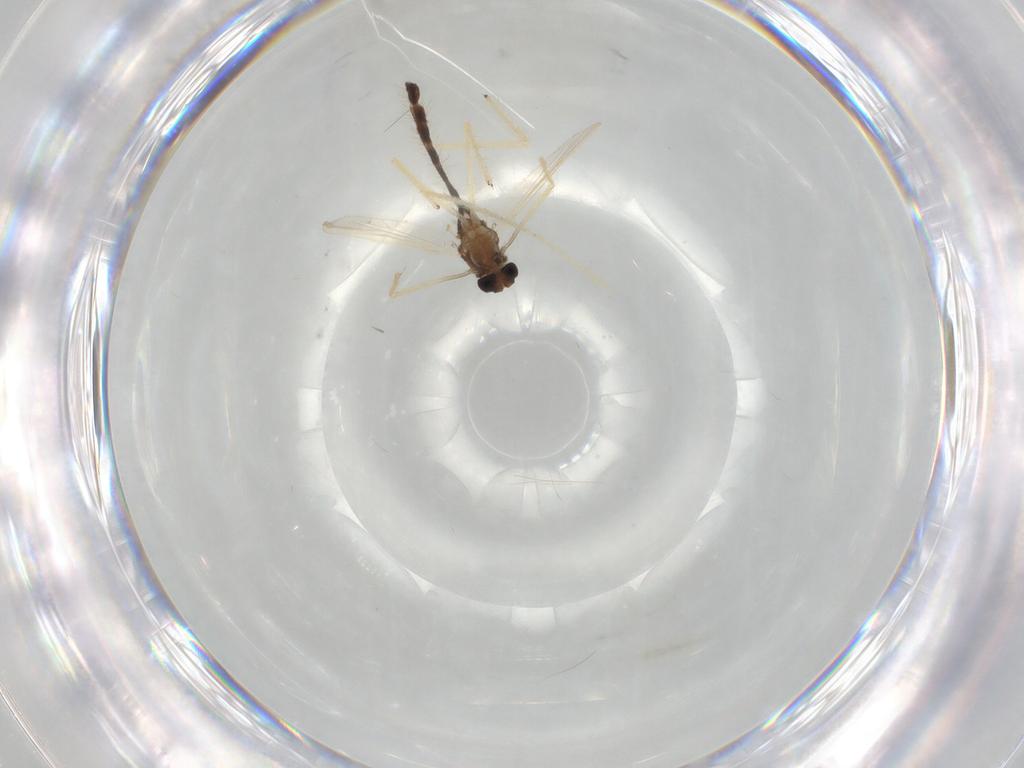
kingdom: Animalia
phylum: Arthropoda
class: Insecta
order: Diptera
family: Chironomidae
